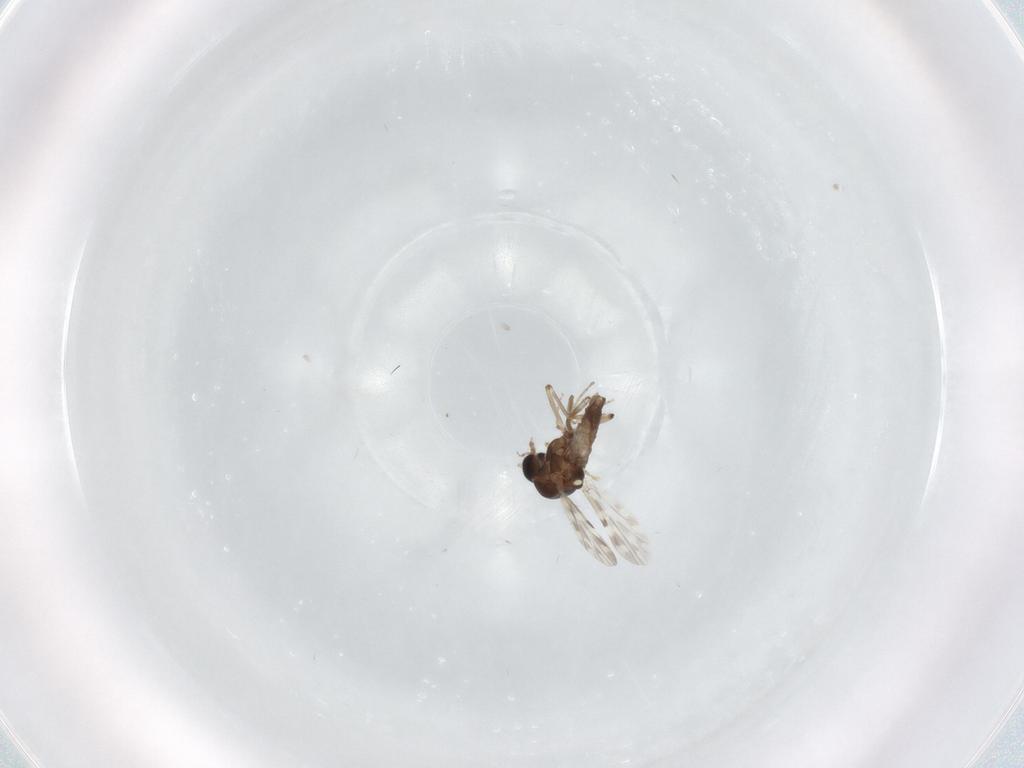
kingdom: Animalia
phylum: Arthropoda
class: Insecta
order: Diptera
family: Ceratopogonidae
